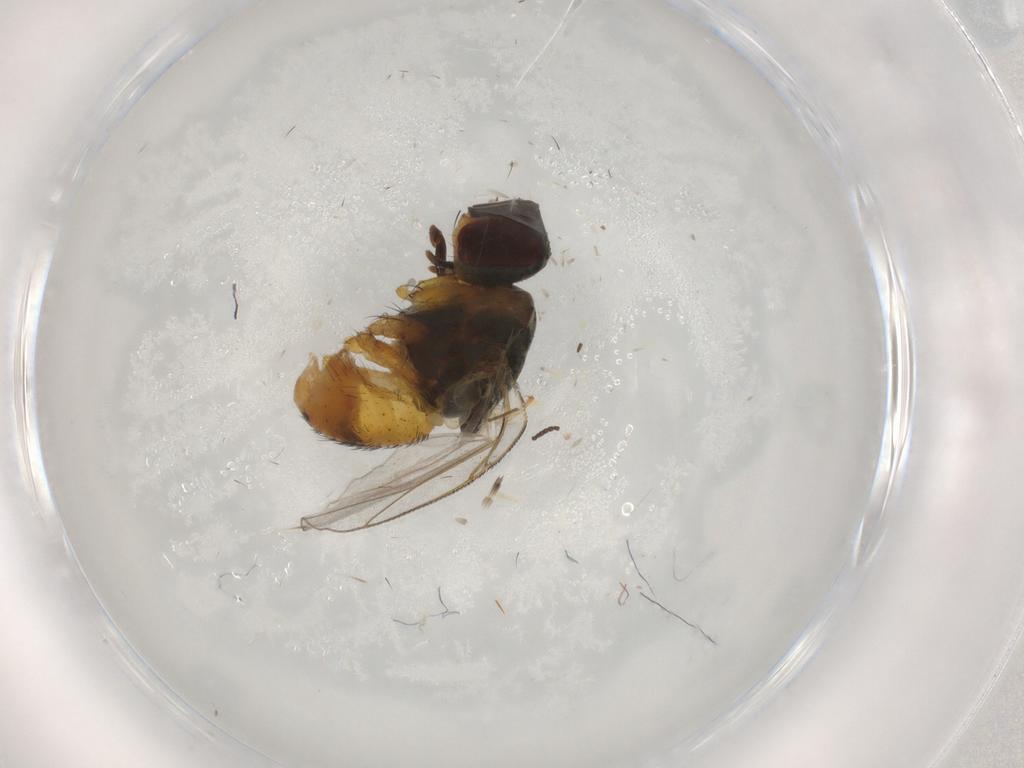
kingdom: Animalia
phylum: Arthropoda
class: Insecta
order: Diptera
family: Muscidae
